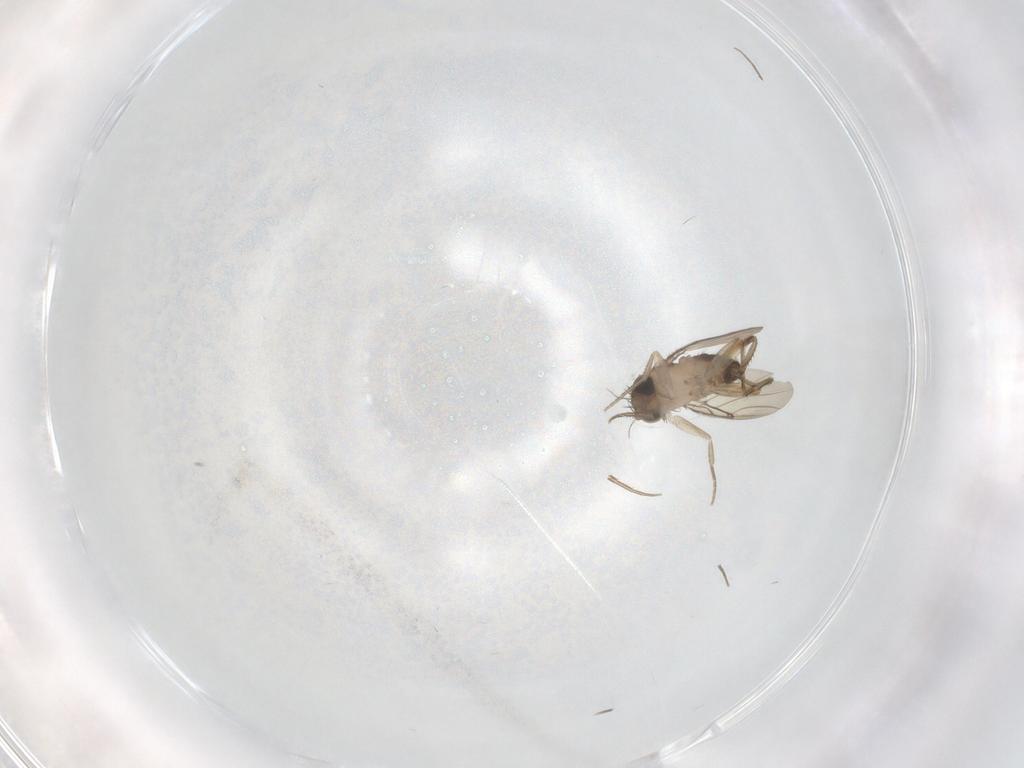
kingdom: Animalia
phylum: Arthropoda
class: Insecta
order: Diptera
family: Phoridae
